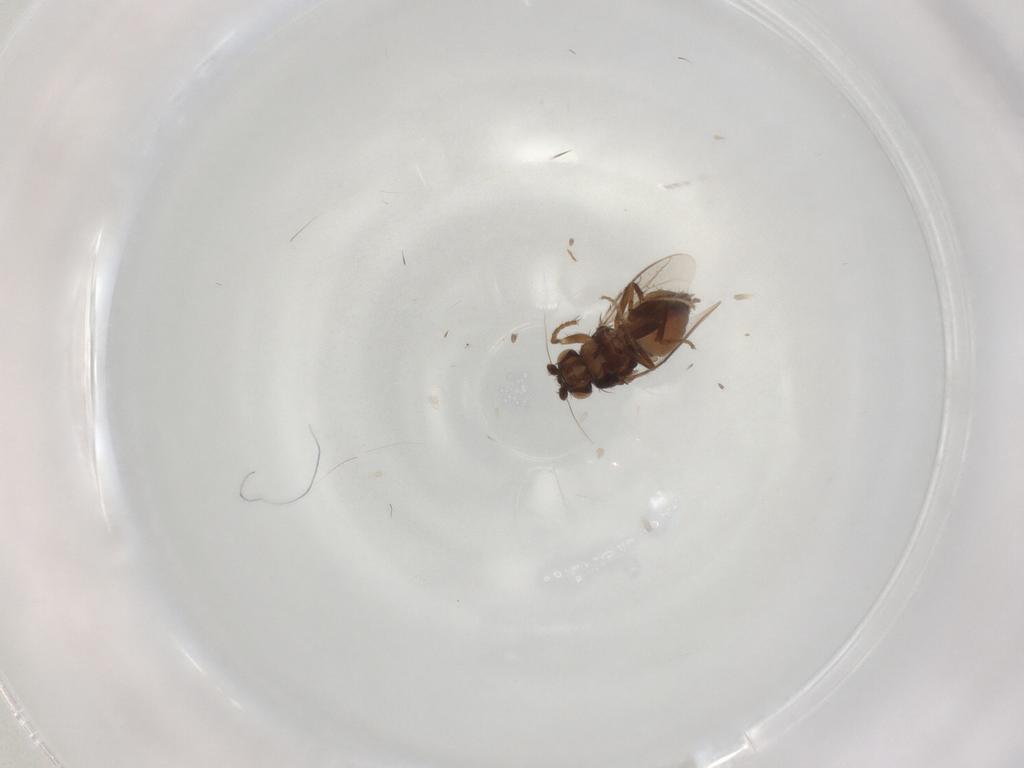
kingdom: Animalia
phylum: Arthropoda
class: Insecta
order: Diptera
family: Sphaeroceridae
